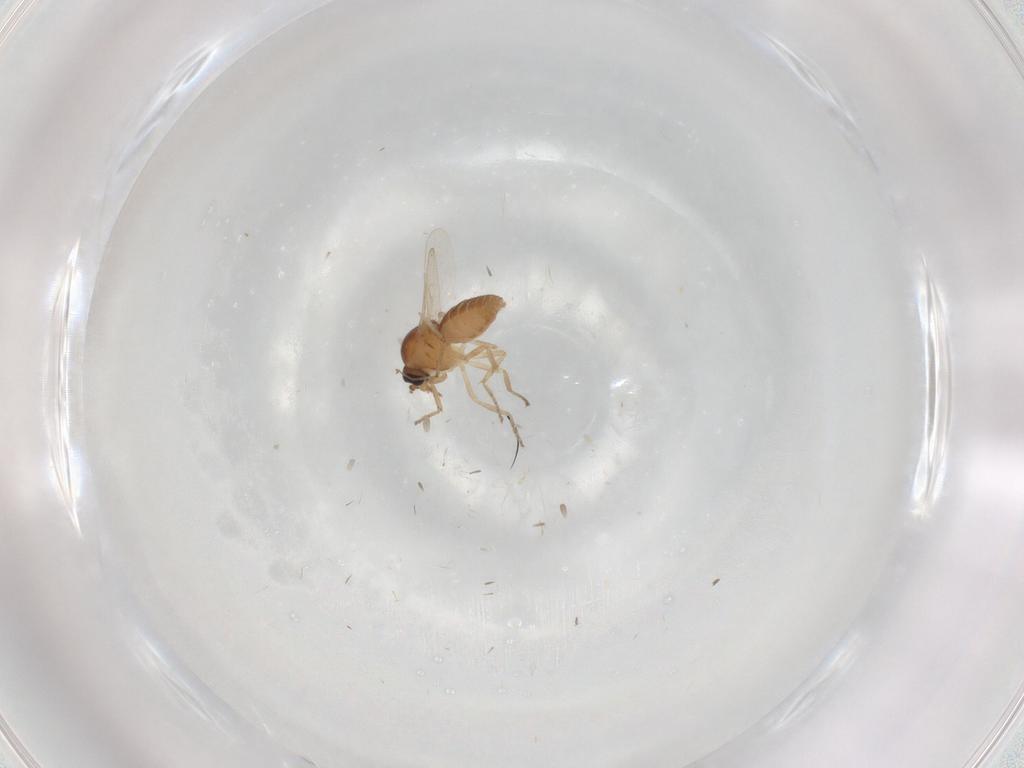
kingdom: Animalia
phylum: Arthropoda
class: Insecta
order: Diptera
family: Ceratopogonidae
